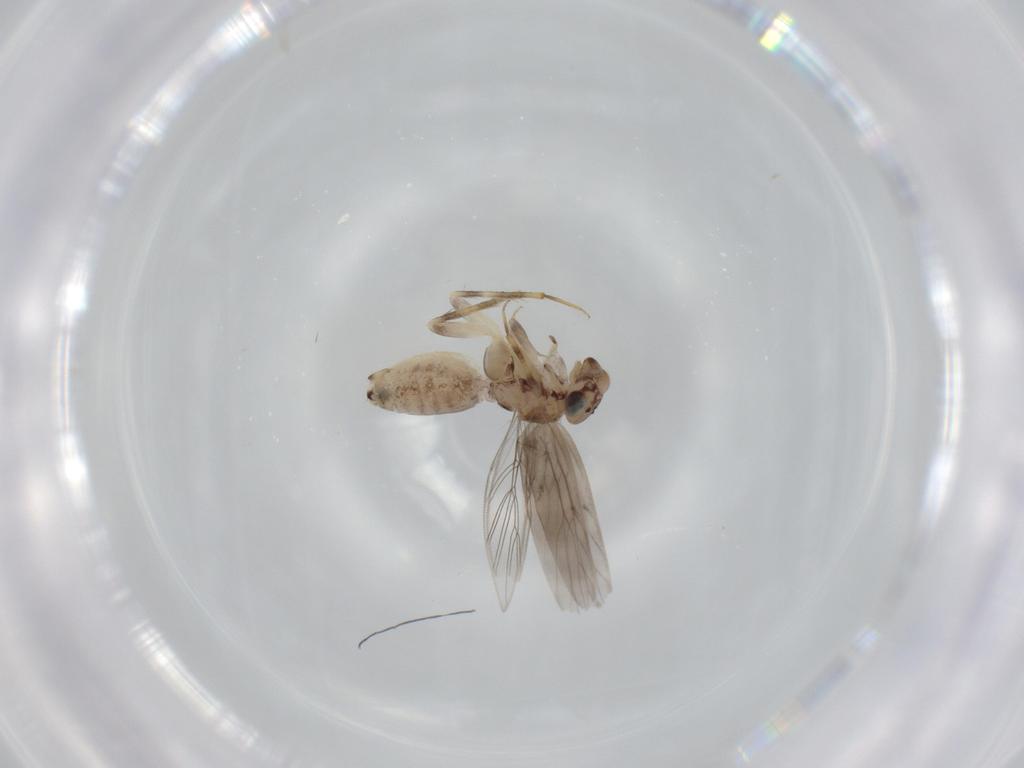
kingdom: Animalia
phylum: Arthropoda
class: Insecta
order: Psocodea
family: Lepidopsocidae
